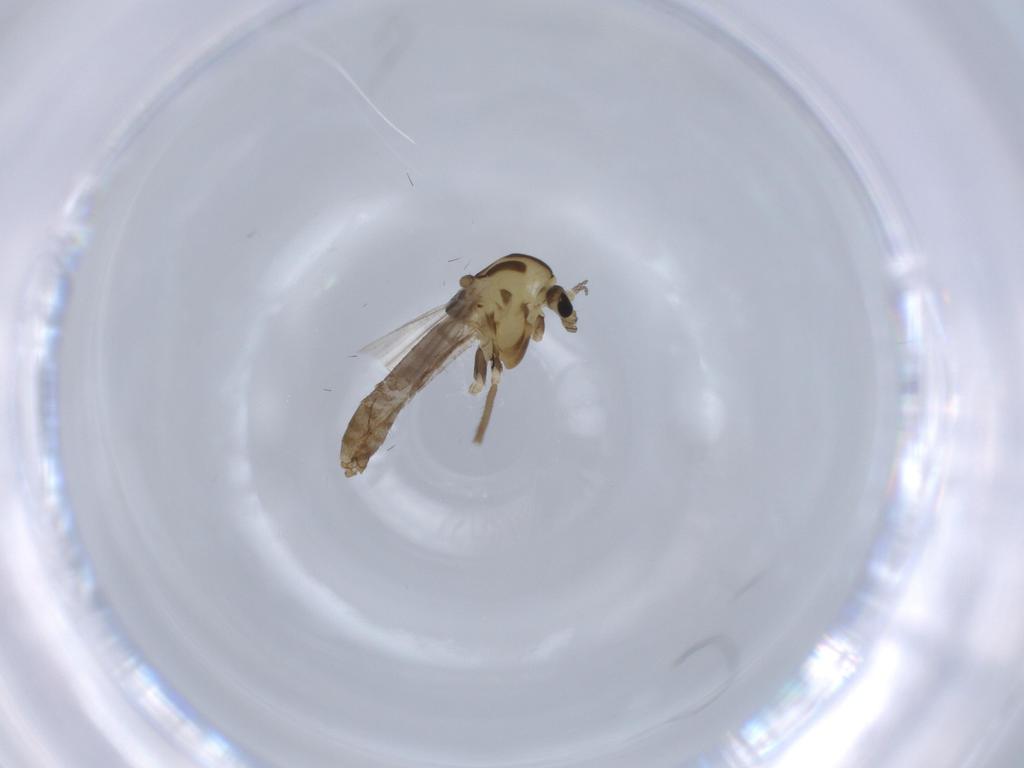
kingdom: Animalia
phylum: Arthropoda
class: Insecta
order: Diptera
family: Chironomidae
